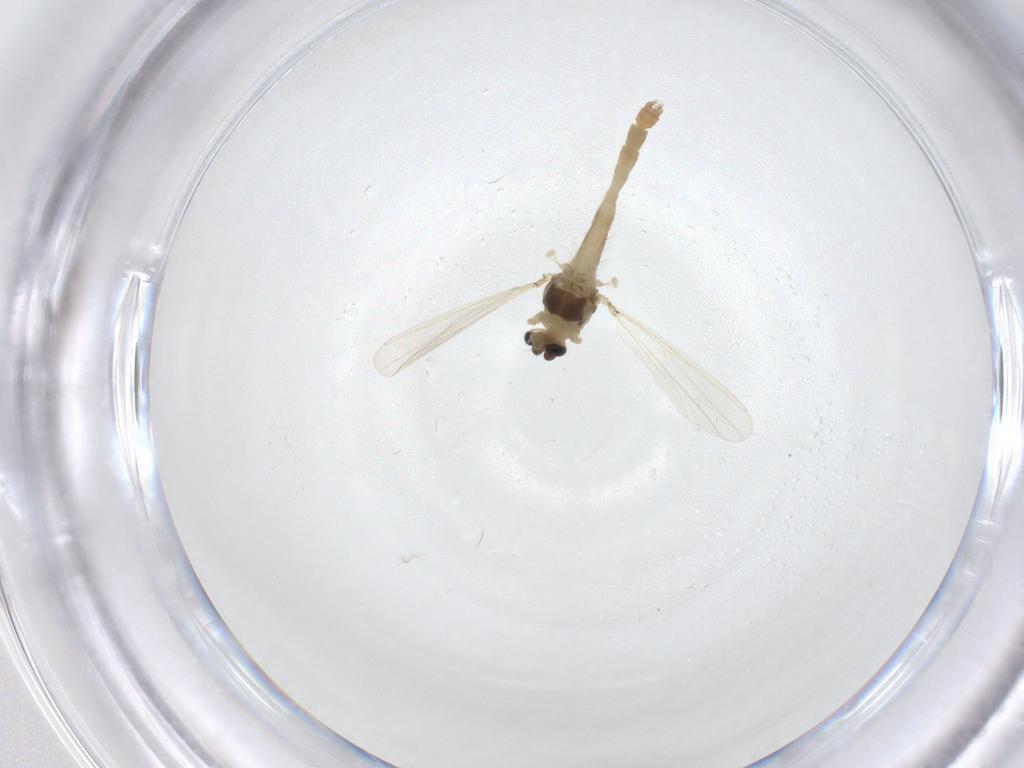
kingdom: Animalia
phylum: Arthropoda
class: Insecta
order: Diptera
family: Chironomidae
